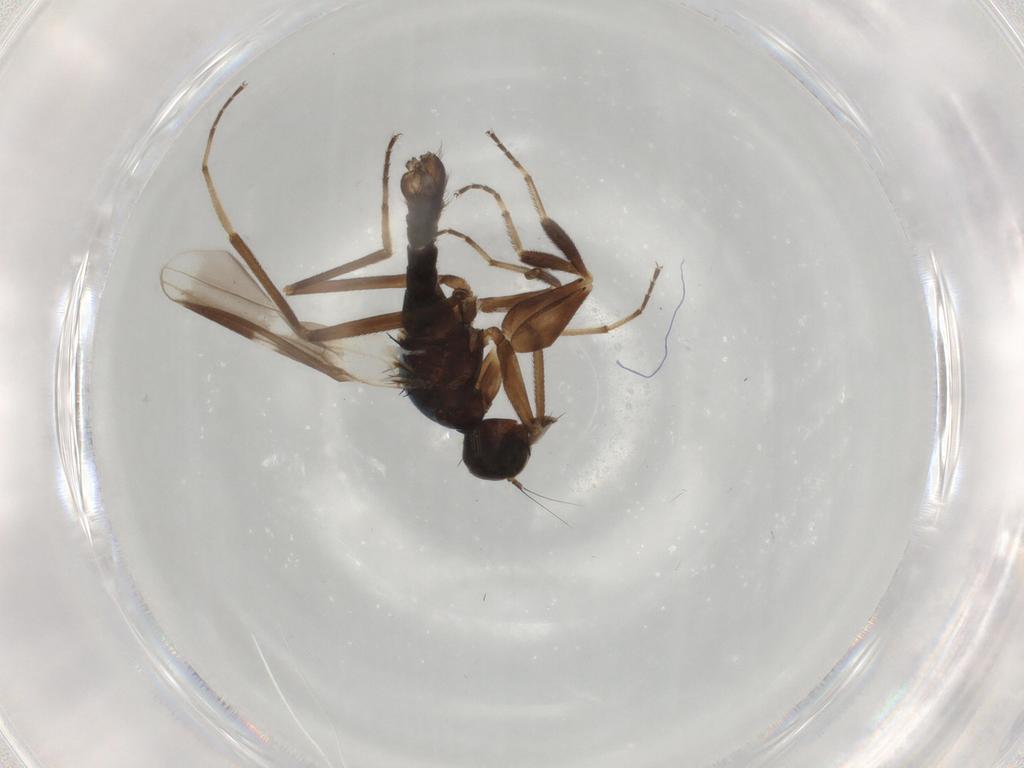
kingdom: Animalia
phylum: Arthropoda
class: Insecta
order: Diptera
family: Hybotidae
